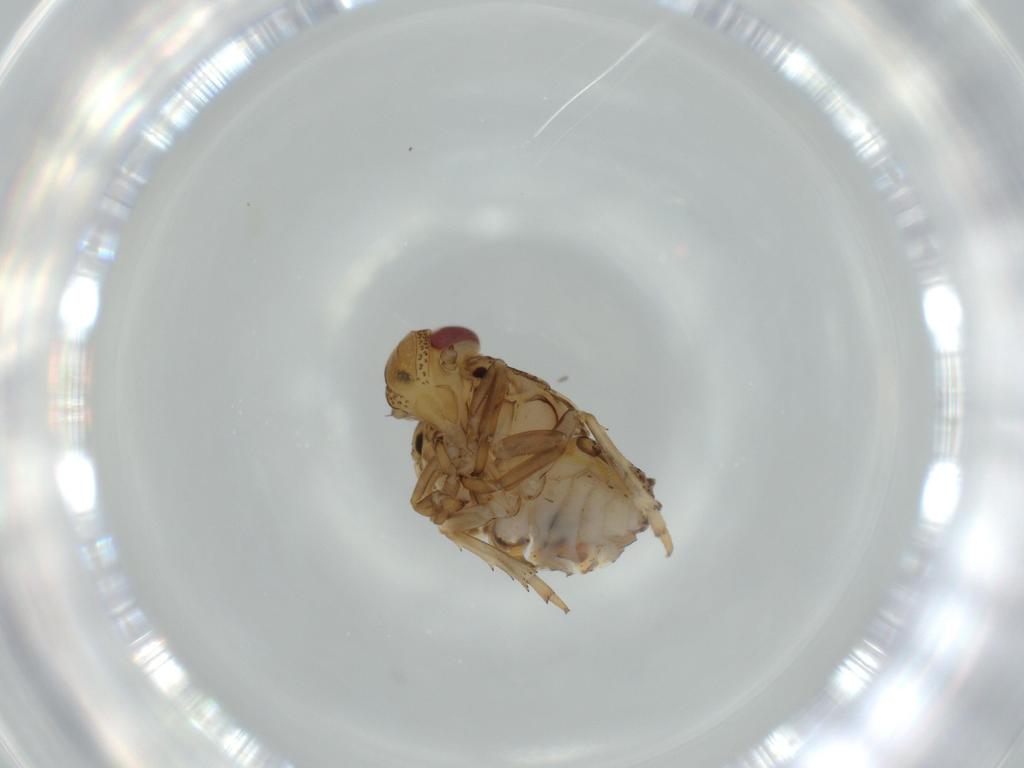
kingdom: Animalia
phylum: Arthropoda
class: Insecta
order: Hemiptera
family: Issidae
